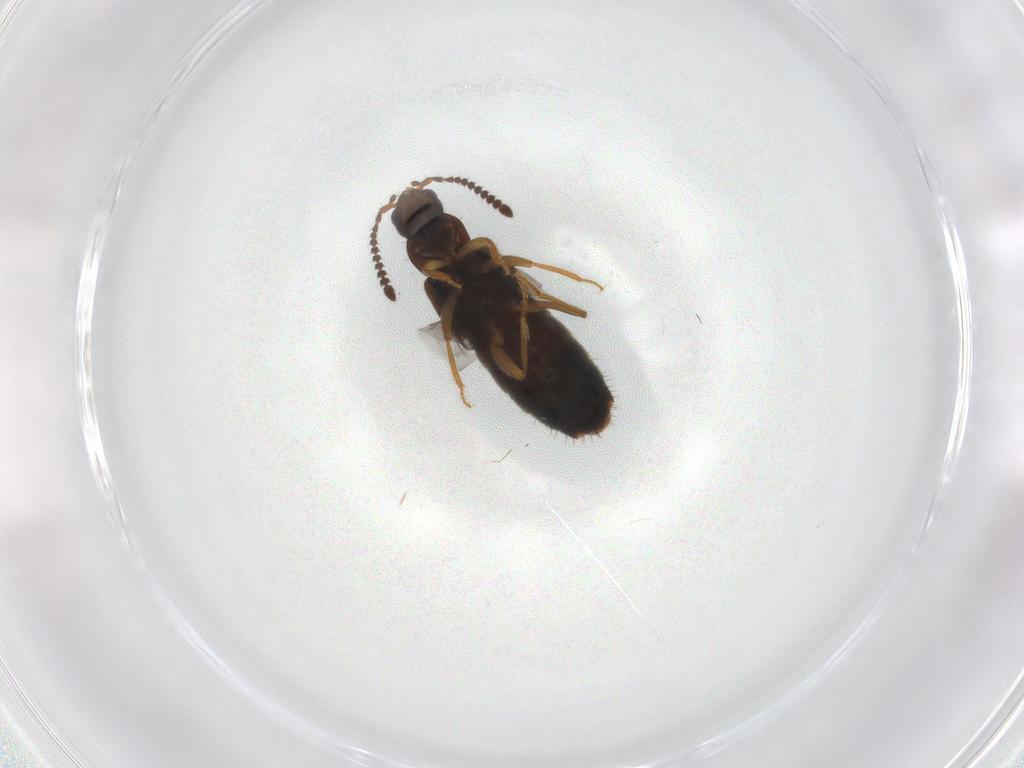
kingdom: Animalia
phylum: Arthropoda
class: Insecta
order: Coleoptera
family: Staphylinidae
